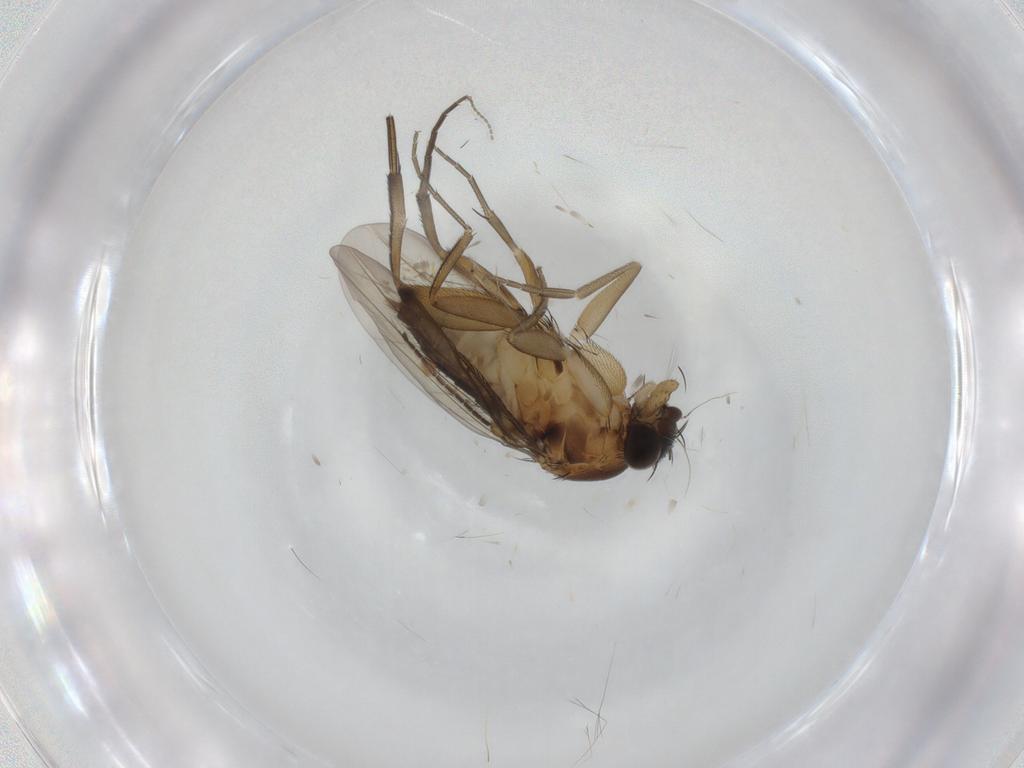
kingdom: Animalia
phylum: Arthropoda
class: Insecta
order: Diptera
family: Phoridae
